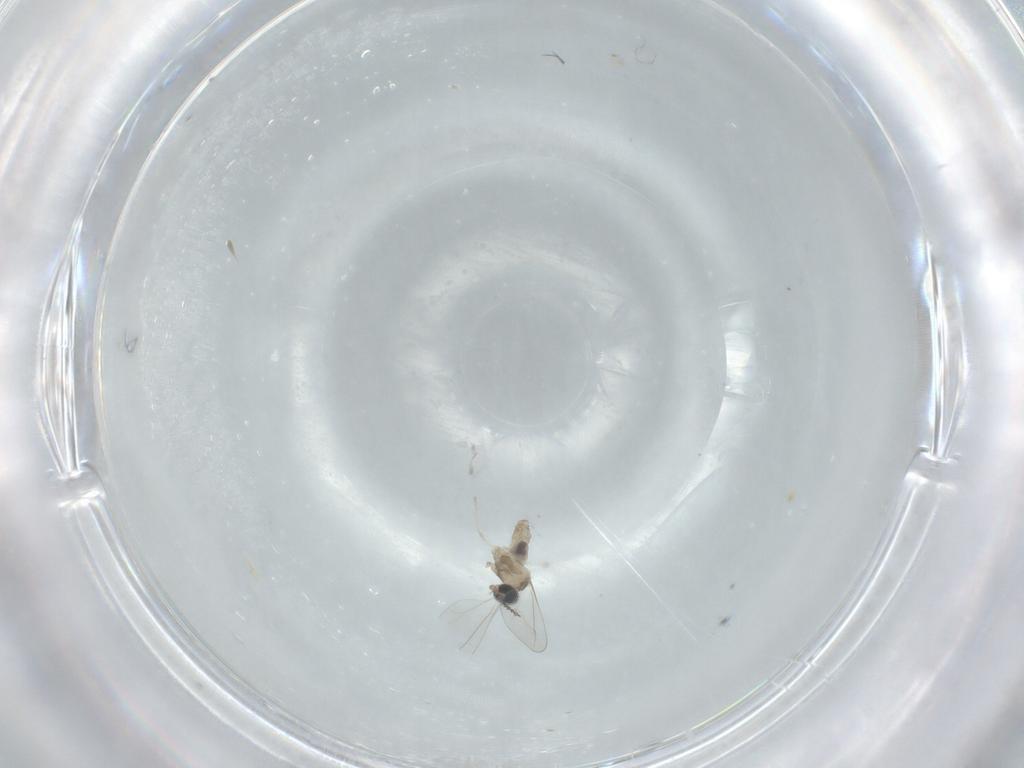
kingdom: Animalia
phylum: Arthropoda
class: Insecta
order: Diptera
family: Cecidomyiidae
